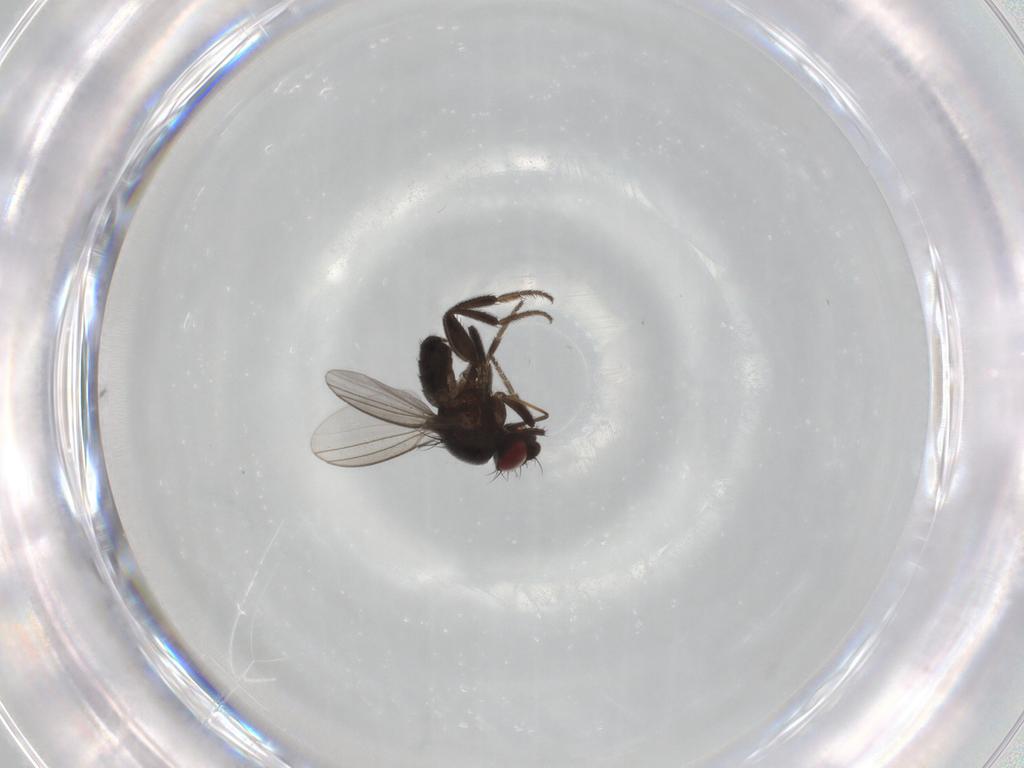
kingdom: Animalia
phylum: Arthropoda
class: Insecta
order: Diptera
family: Milichiidae
